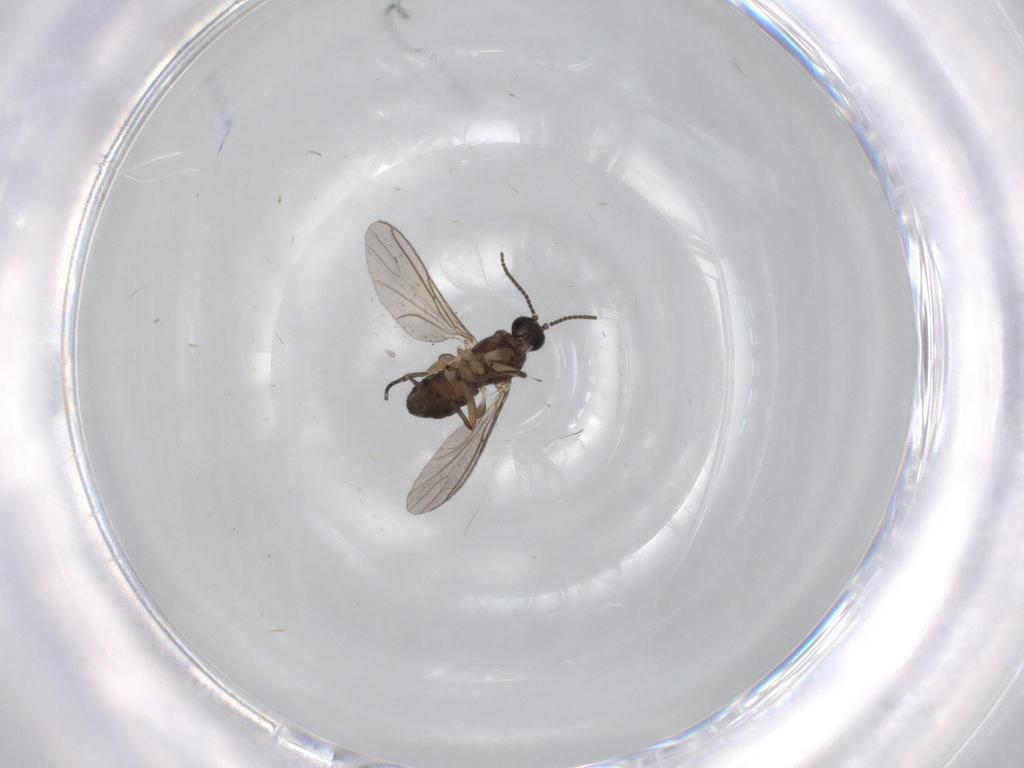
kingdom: Animalia
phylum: Arthropoda
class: Insecta
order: Diptera
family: Sciaridae
